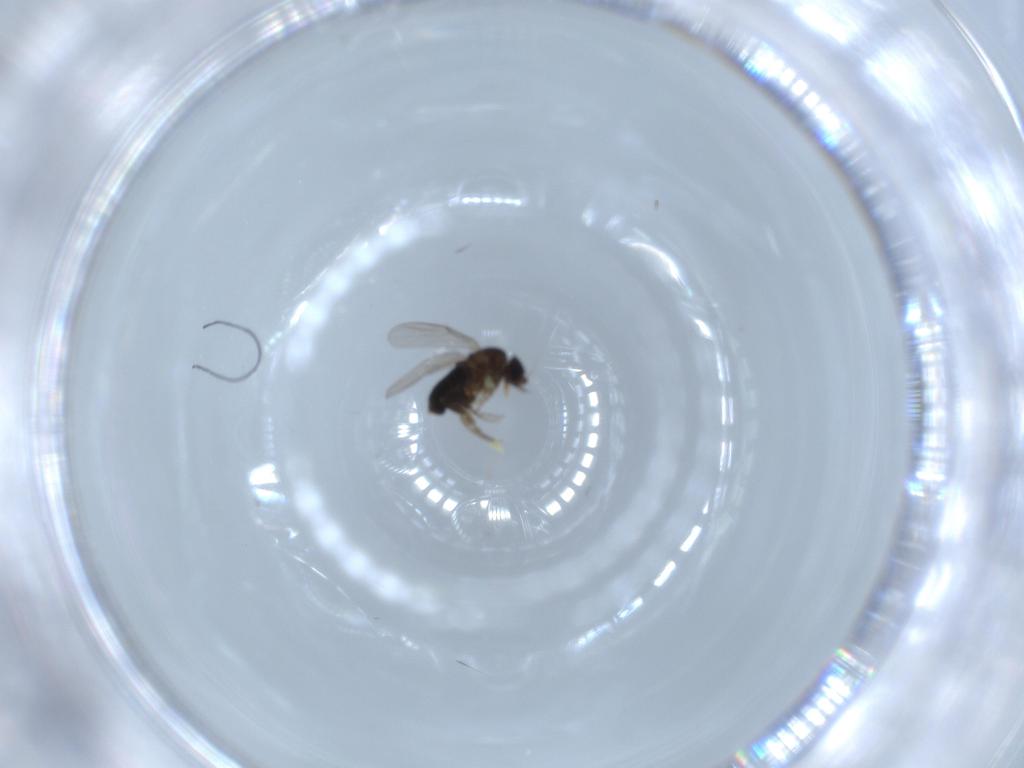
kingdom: Animalia
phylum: Arthropoda
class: Insecta
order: Diptera
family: Phoridae
